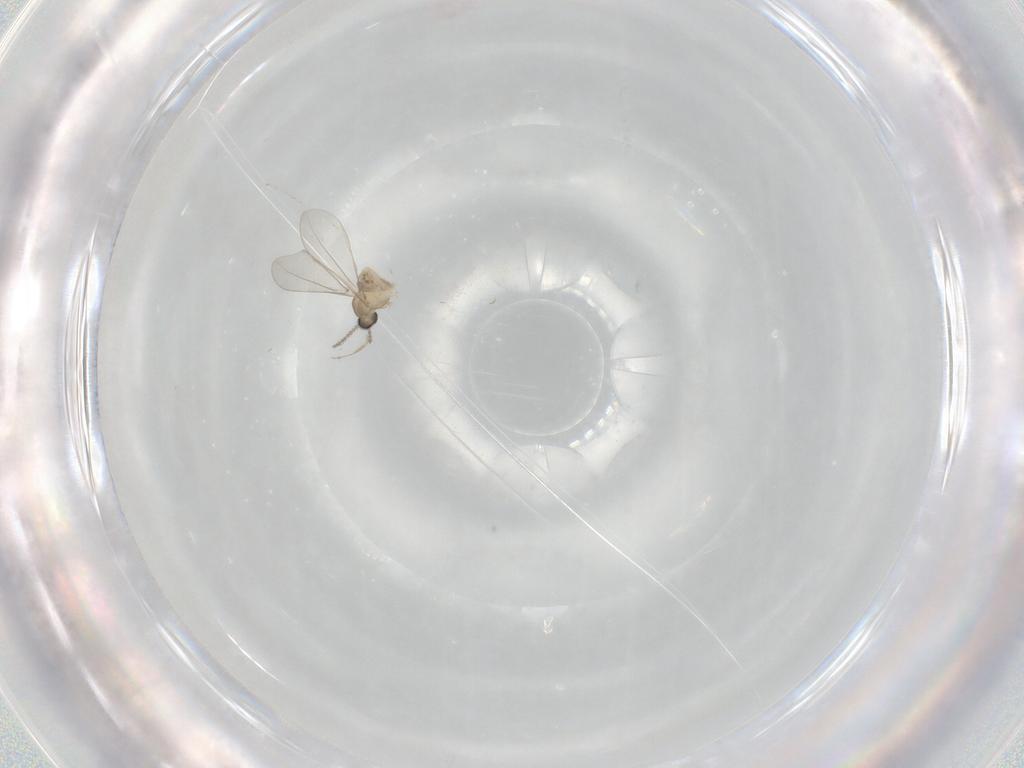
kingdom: Animalia
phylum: Arthropoda
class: Insecta
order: Diptera
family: Cecidomyiidae
